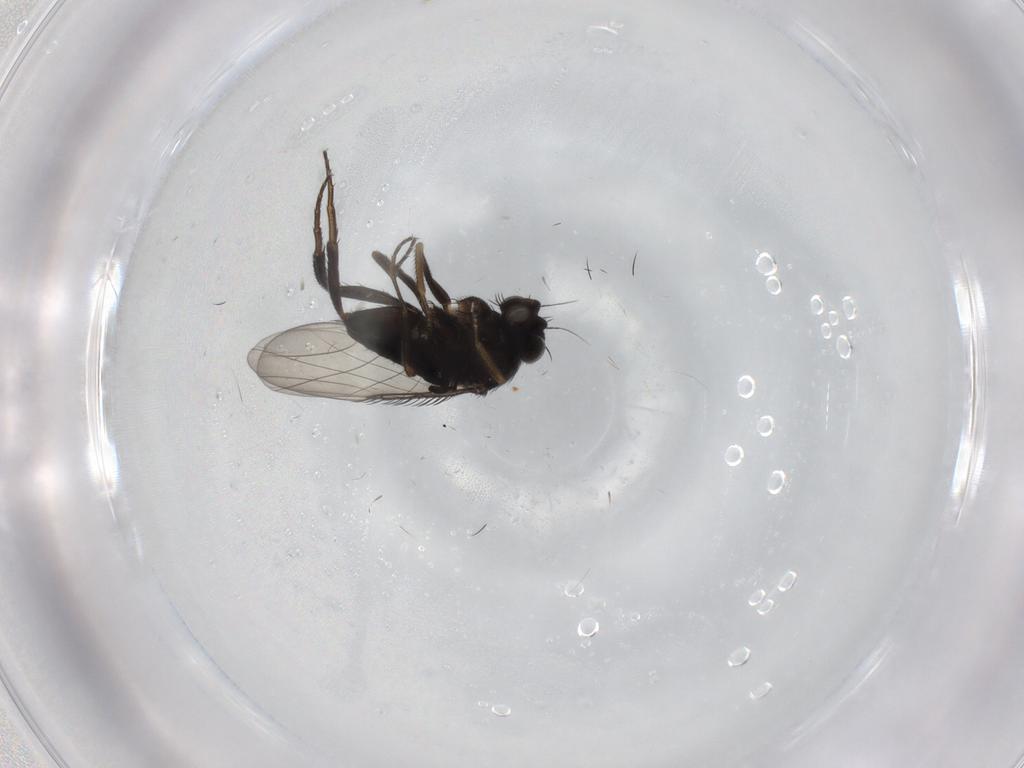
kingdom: Animalia
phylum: Arthropoda
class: Insecta
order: Diptera
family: Phoridae
